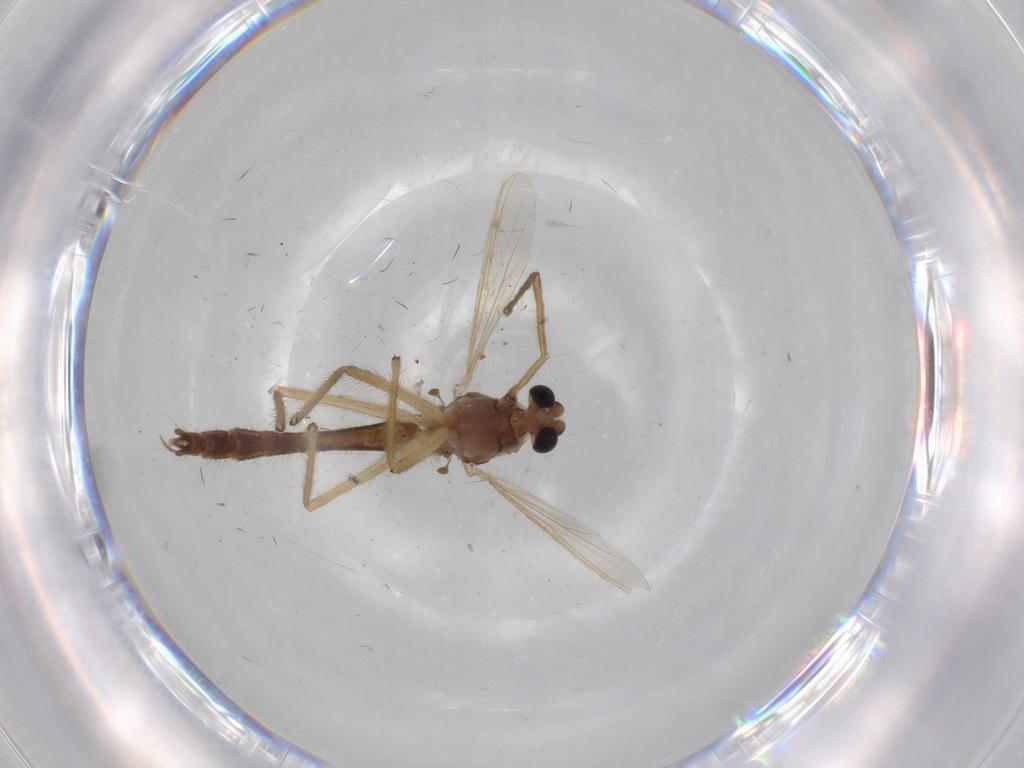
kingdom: Animalia
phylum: Arthropoda
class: Insecta
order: Diptera
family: Chironomidae
